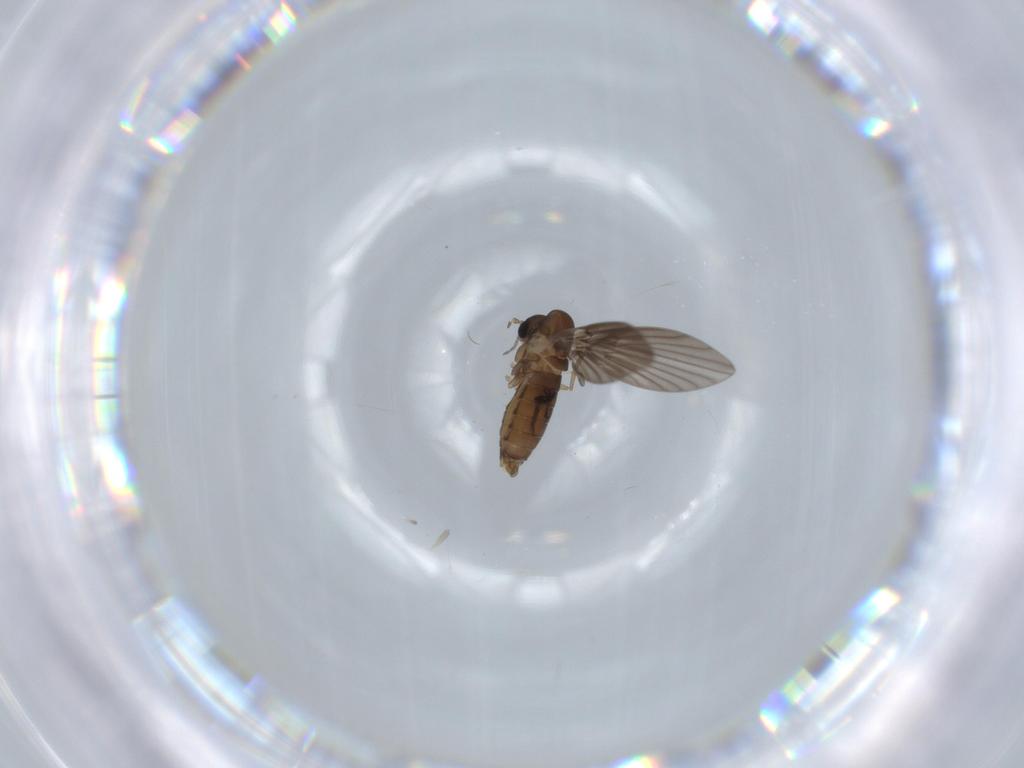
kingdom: Animalia
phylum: Arthropoda
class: Insecta
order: Diptera
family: Psychodidae
